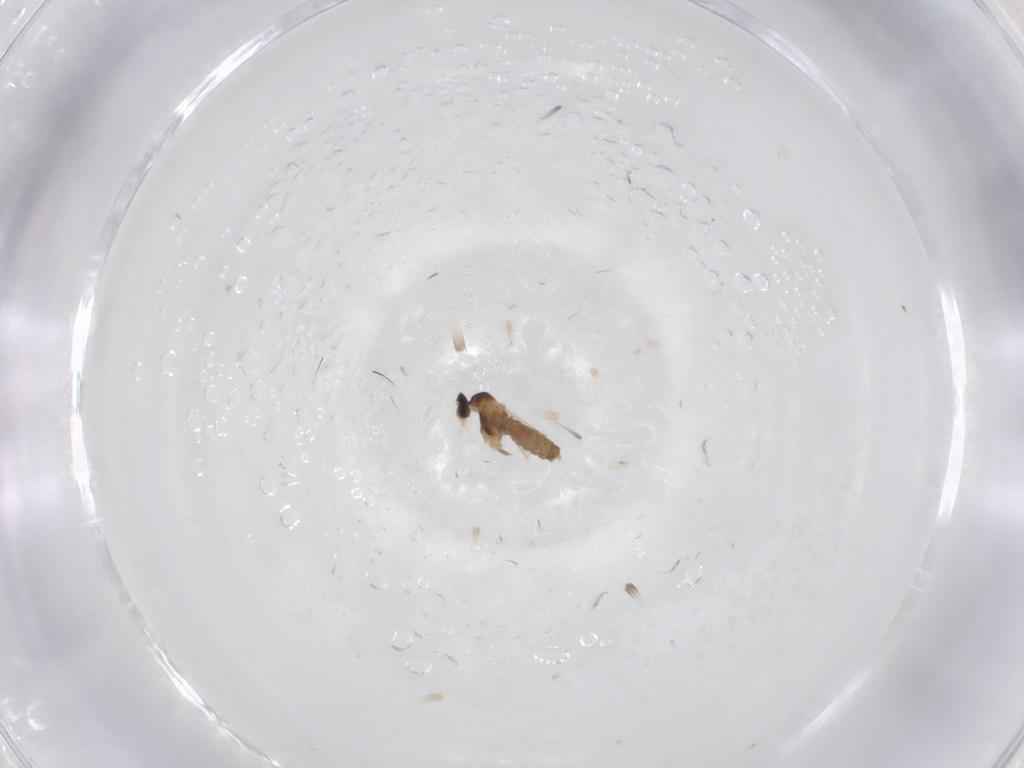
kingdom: Animalia
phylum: Arthropoda
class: Insecta
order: Diptera
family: Cecidomyiidae
